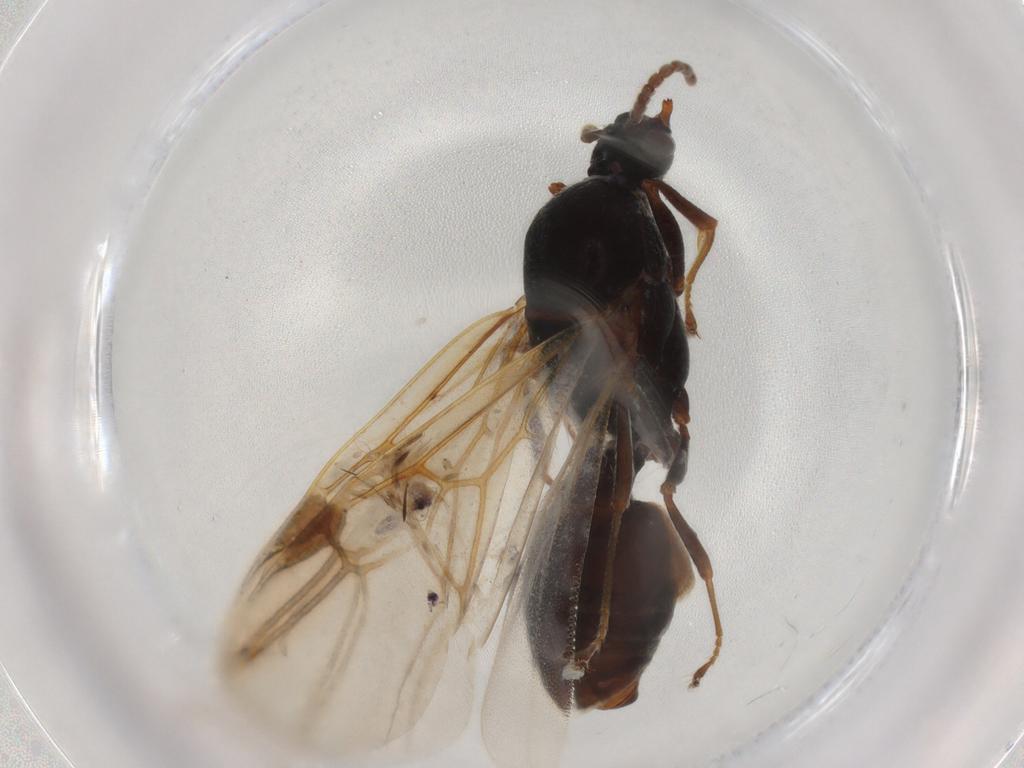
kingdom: Animalia
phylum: Arthropoda
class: Insecta
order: Hymenoptera
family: Formicidae
